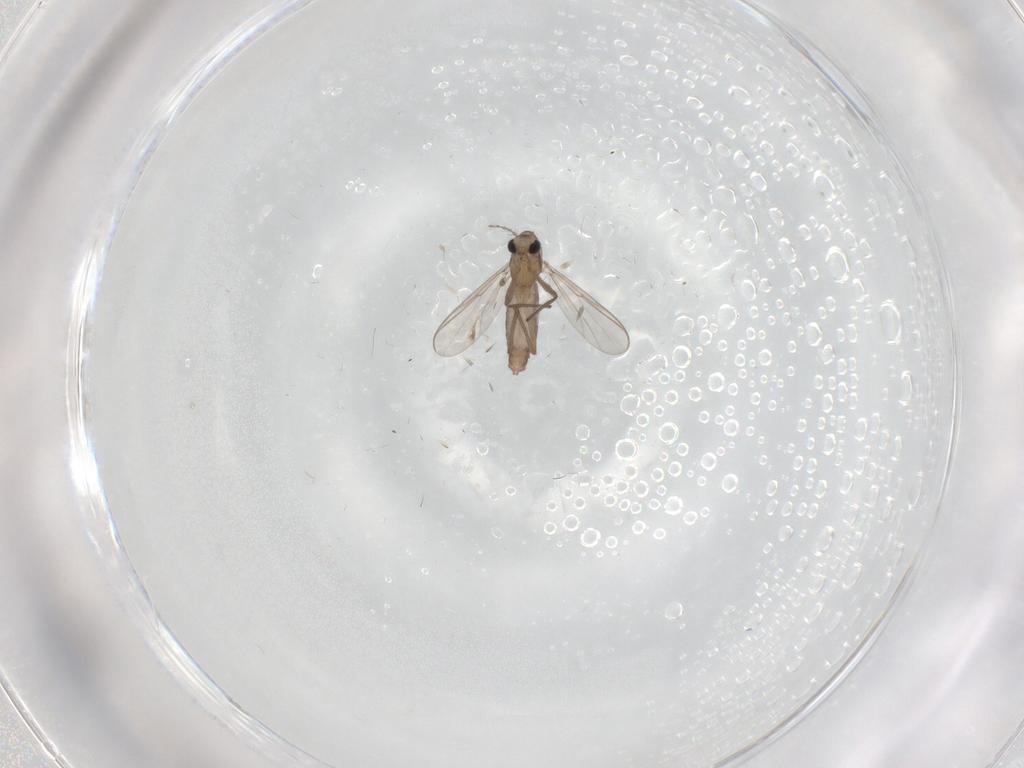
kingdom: Animalia
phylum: Arthropoda
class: Insecta
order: Diptera
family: Chironomidae
